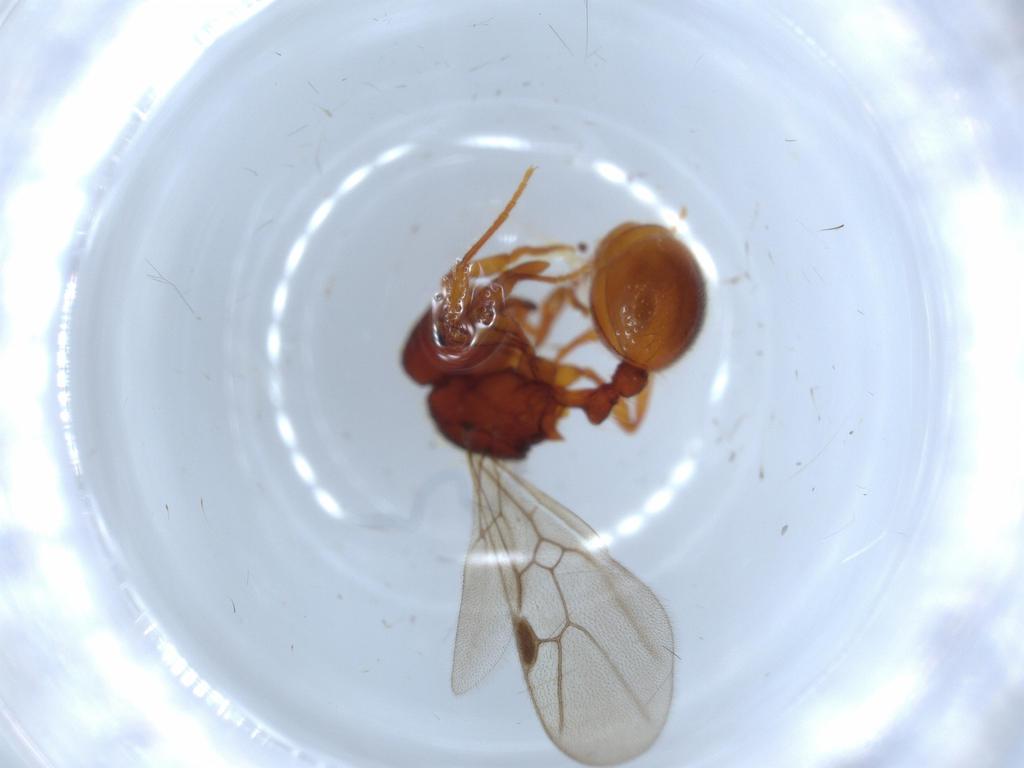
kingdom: Animalia
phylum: Arthropoda
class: Insecta
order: Hymenoptera
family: Formicidae
